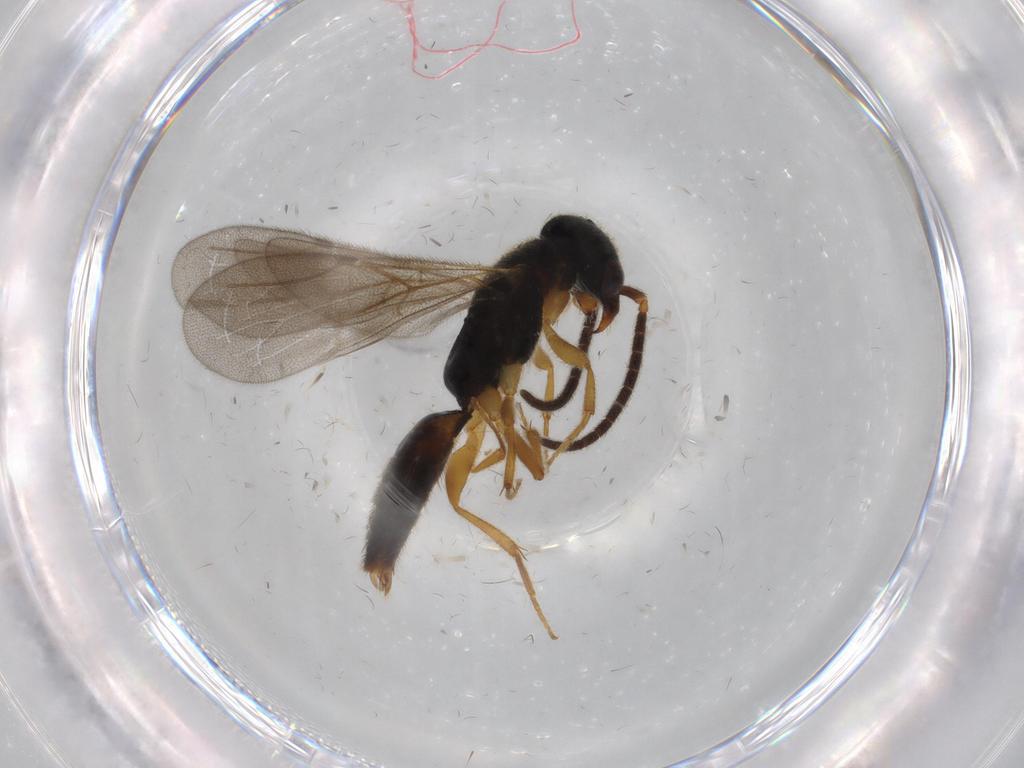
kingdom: Animalia
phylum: Arthropoda
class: Insecta
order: Hymenoptera
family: Bethylidae
